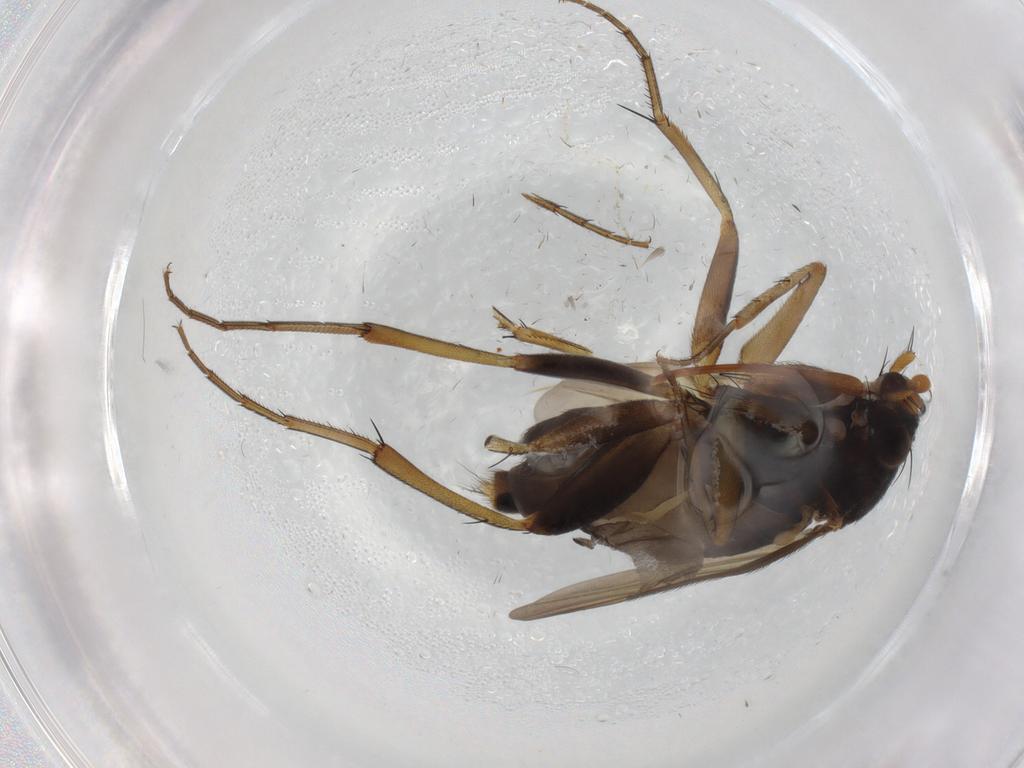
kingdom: Animalia
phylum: Arthropoda
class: Insecta
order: Diptera
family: Phoridae
